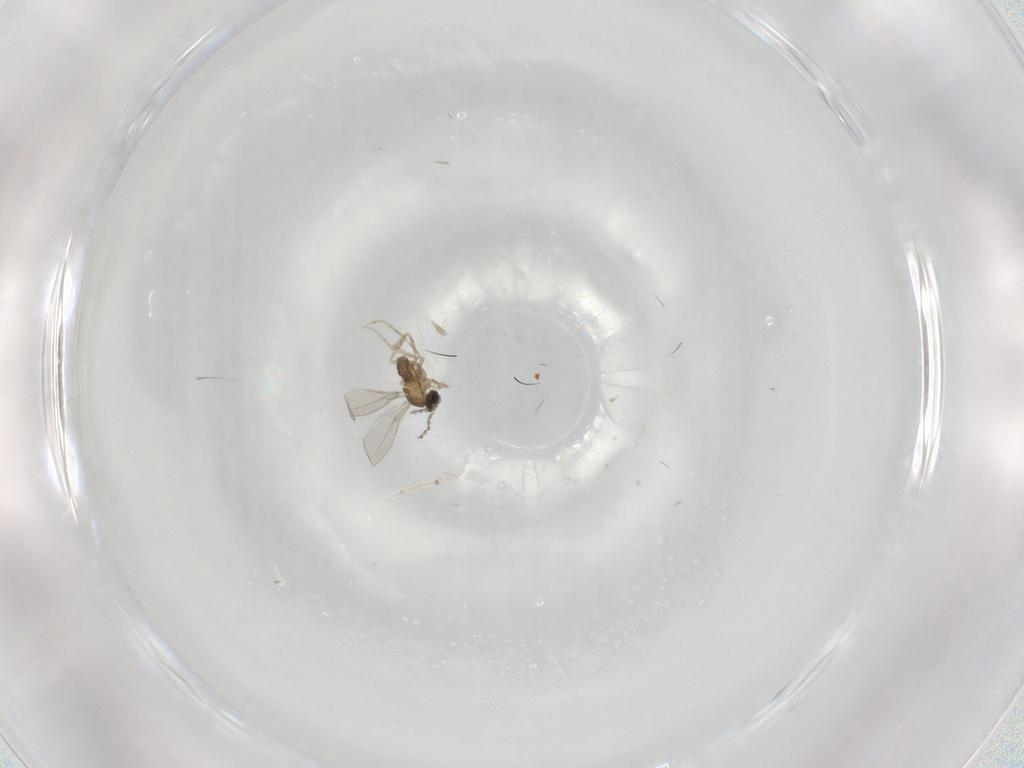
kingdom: Animalia
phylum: Arthropoda
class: Insecta
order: Diptera
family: Cecidomyiidae
